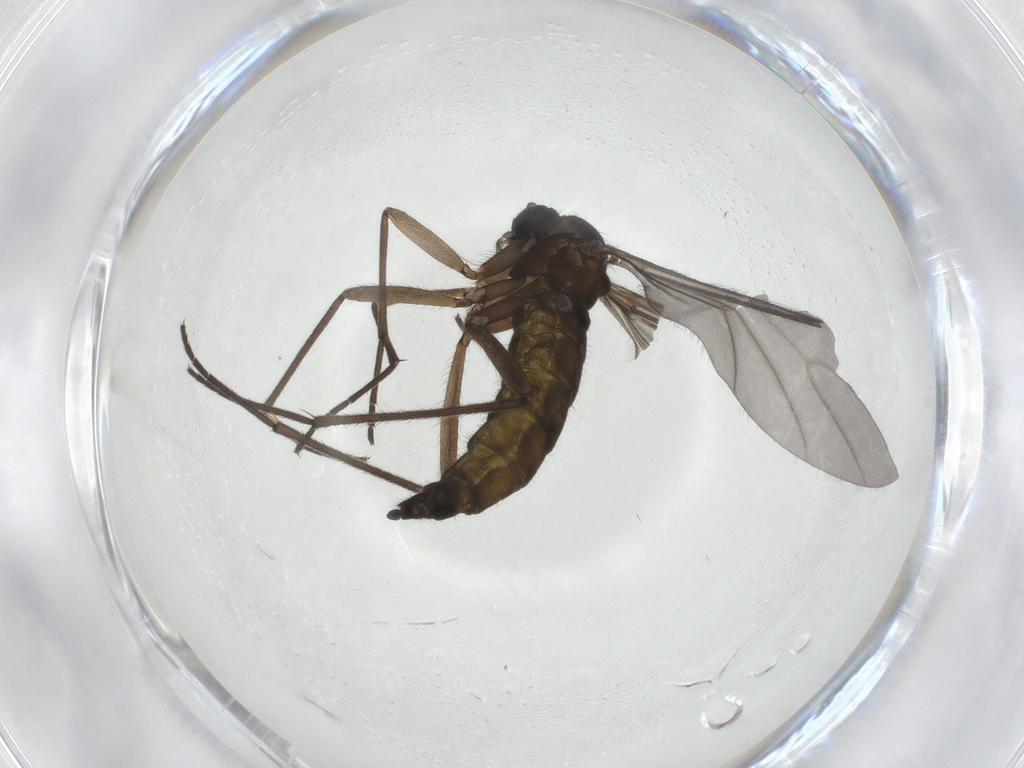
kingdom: Animalia
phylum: Arthropoda
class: Insecta
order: Diptera
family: Sciaridae
